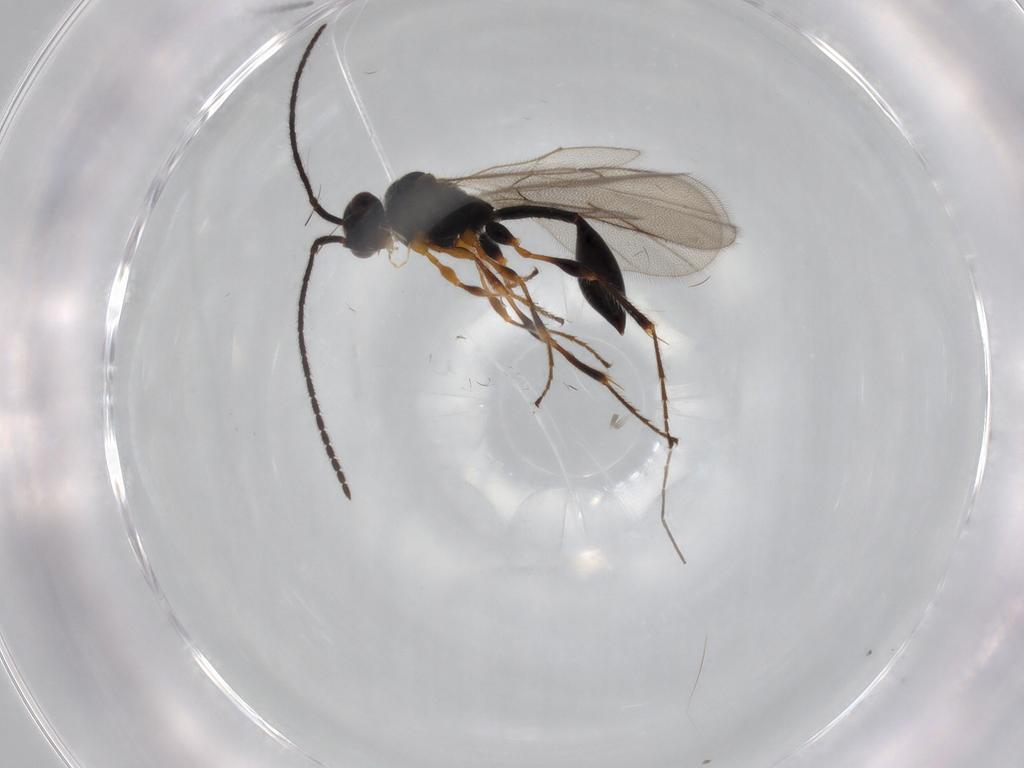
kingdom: Animalia
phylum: Arthropoda
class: Insecta
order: Hymenoptera
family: Diapriidae
